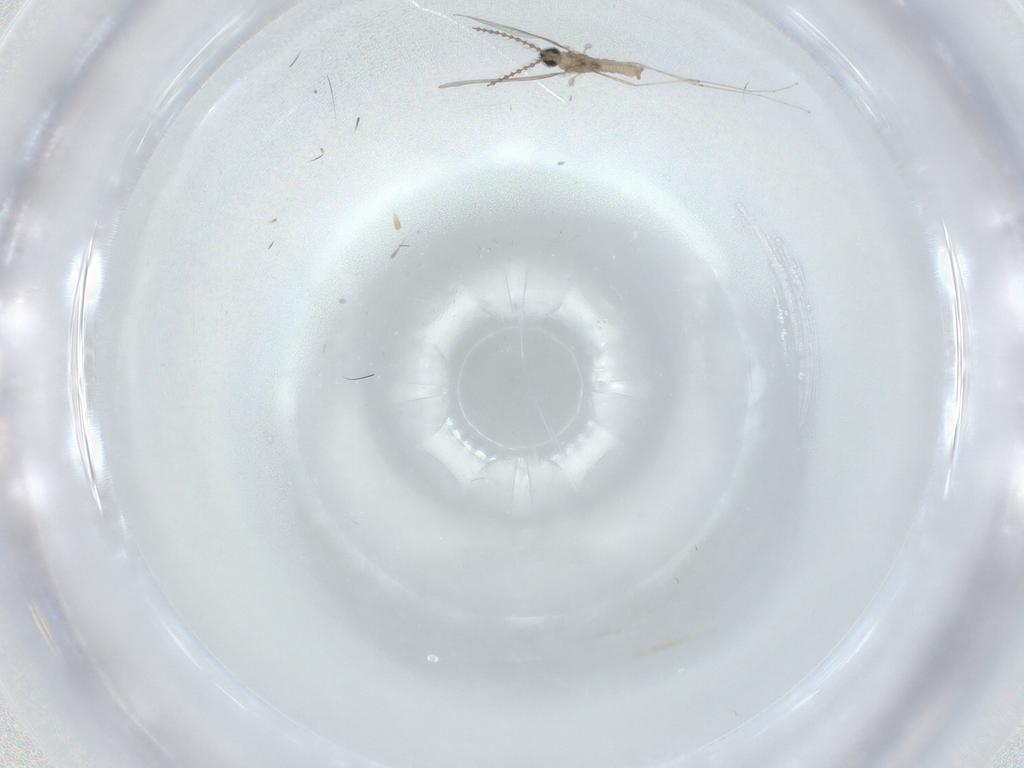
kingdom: Animalia
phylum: Arthropoda
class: Insecta
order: Diptera
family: Cecidomyiidae
